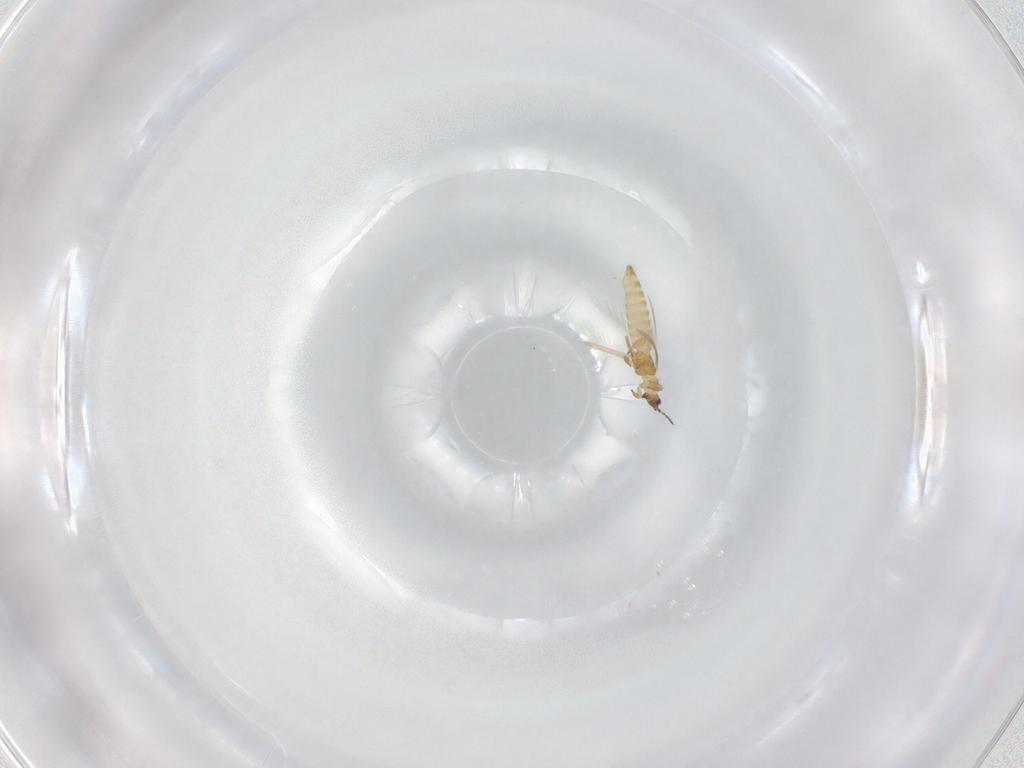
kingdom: Animalia
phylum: Arthropoda
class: Insecta
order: Thysanoptera
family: Thripidae
